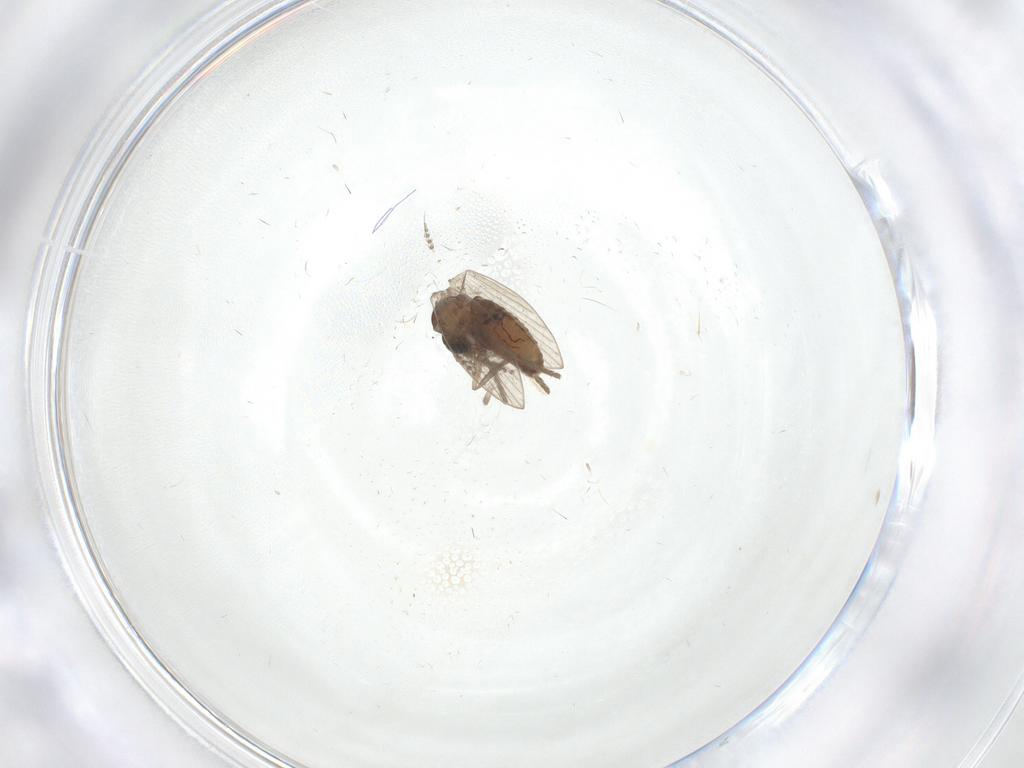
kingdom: Animalia
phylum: Arthropoda
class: Insecta
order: Diptera
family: Psychodidae
